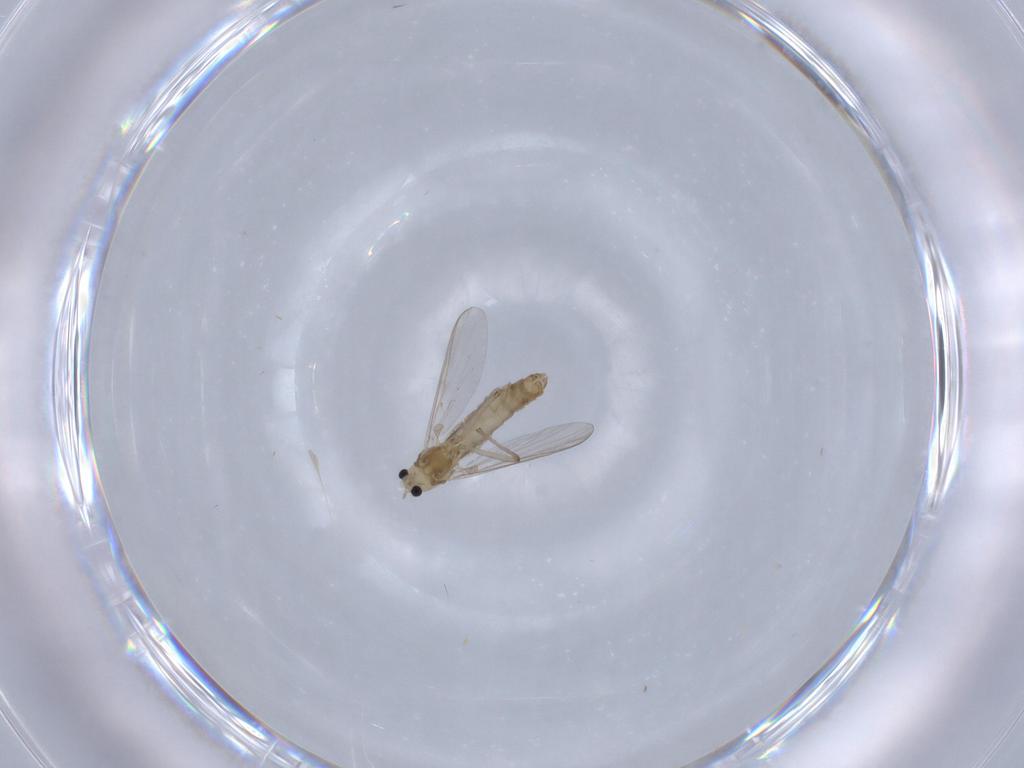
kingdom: Animalia
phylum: Arthropoda
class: Insecta
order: Diptera
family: Chironomidae
